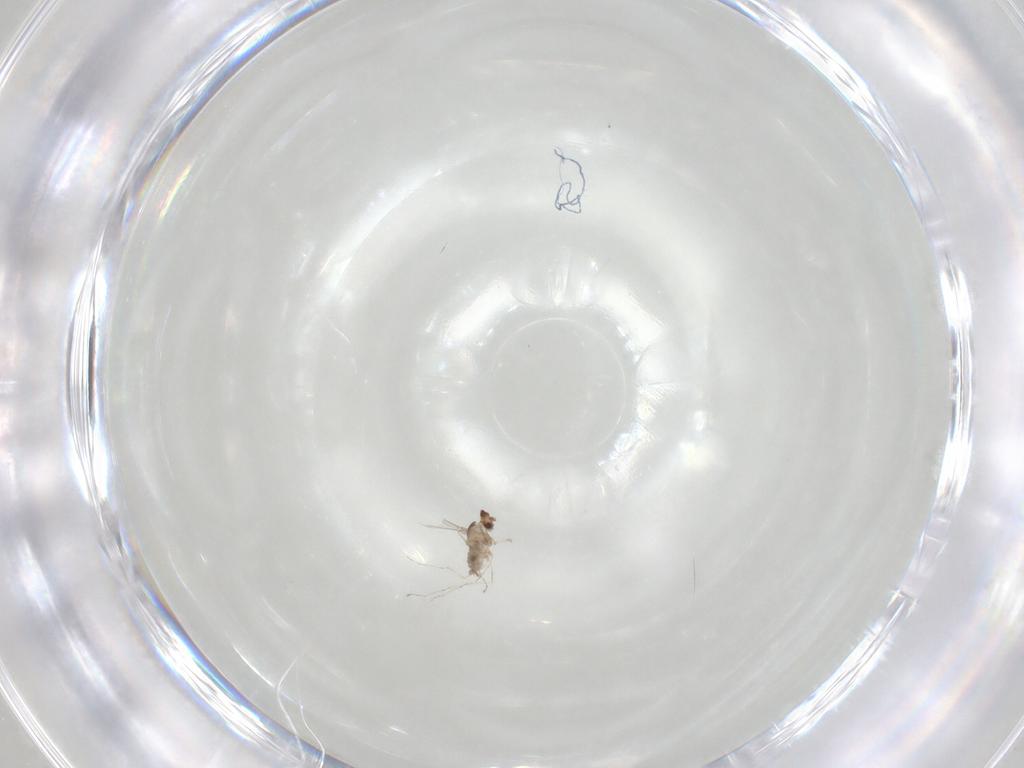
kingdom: Animalia
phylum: Arthropoda
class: Insecta
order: Diptera
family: Cecidomyiidae
